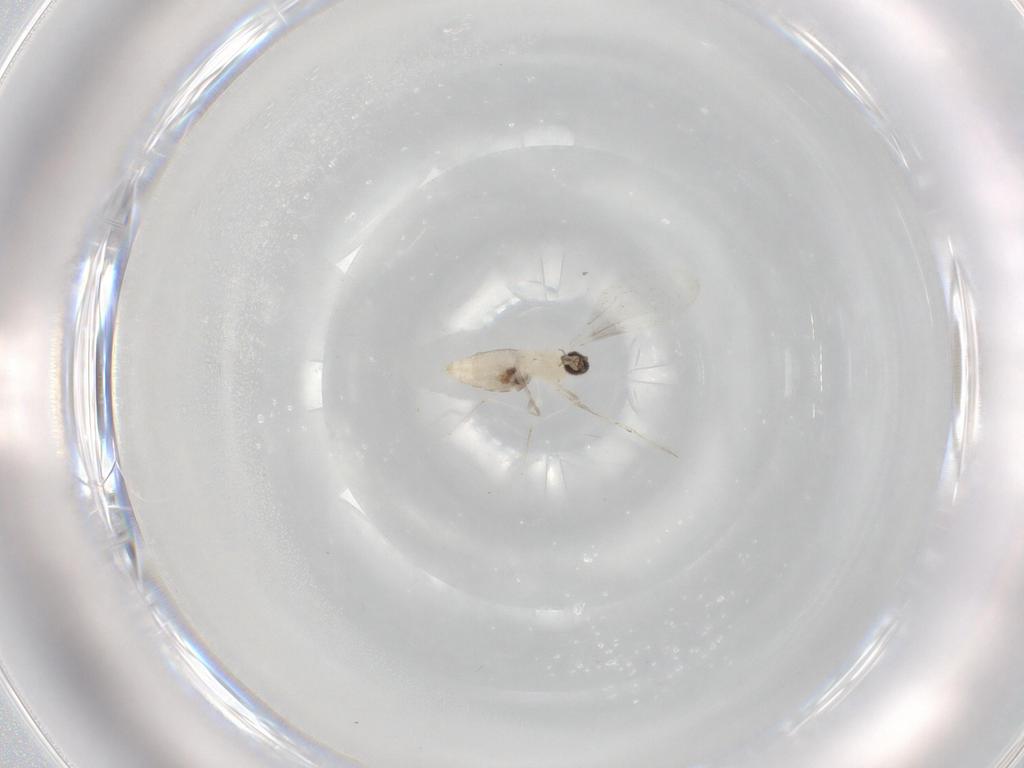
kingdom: Animalia
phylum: Arthropoda
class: Insecta
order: Diptera
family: Cecidomyiidae
